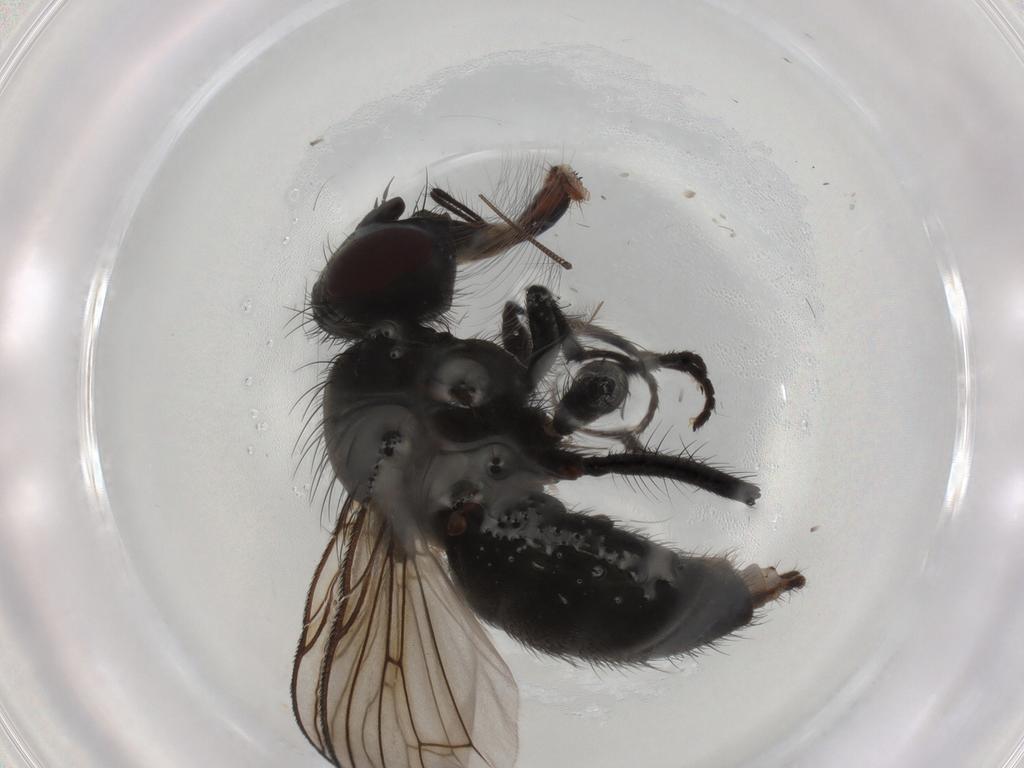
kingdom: Animalia
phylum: Arthropoda
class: Insecta
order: Diptera
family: Muscidae
